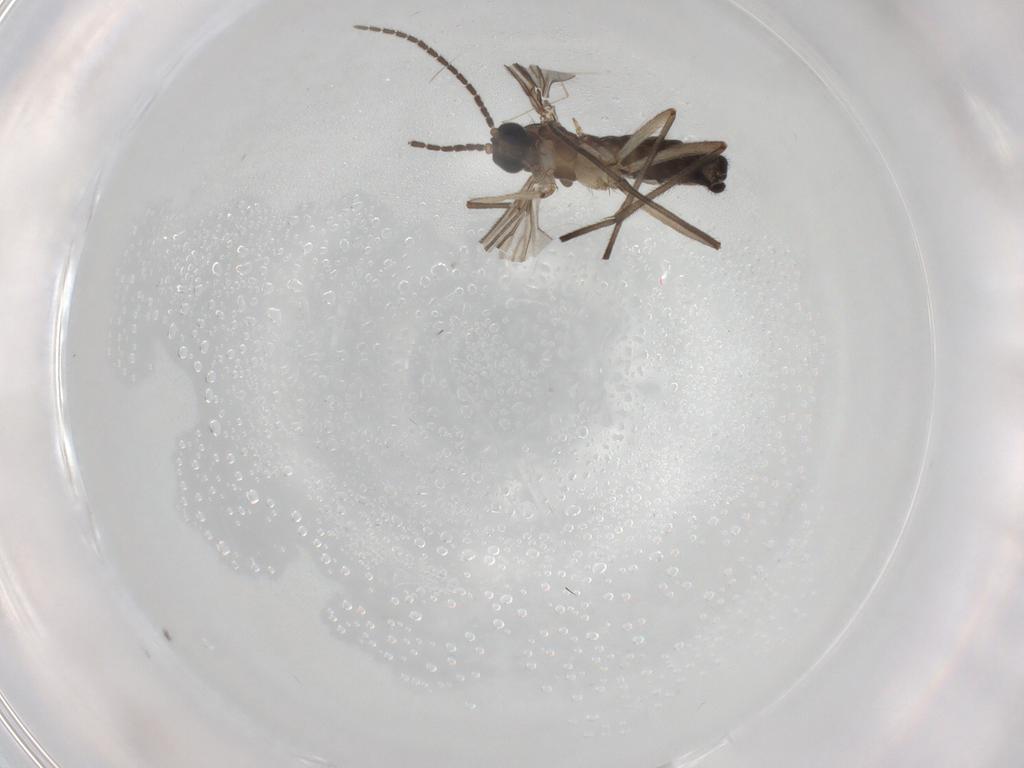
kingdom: Animalia
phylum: Arthropoda
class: Insecta
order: Diptera
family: Sciaridae
